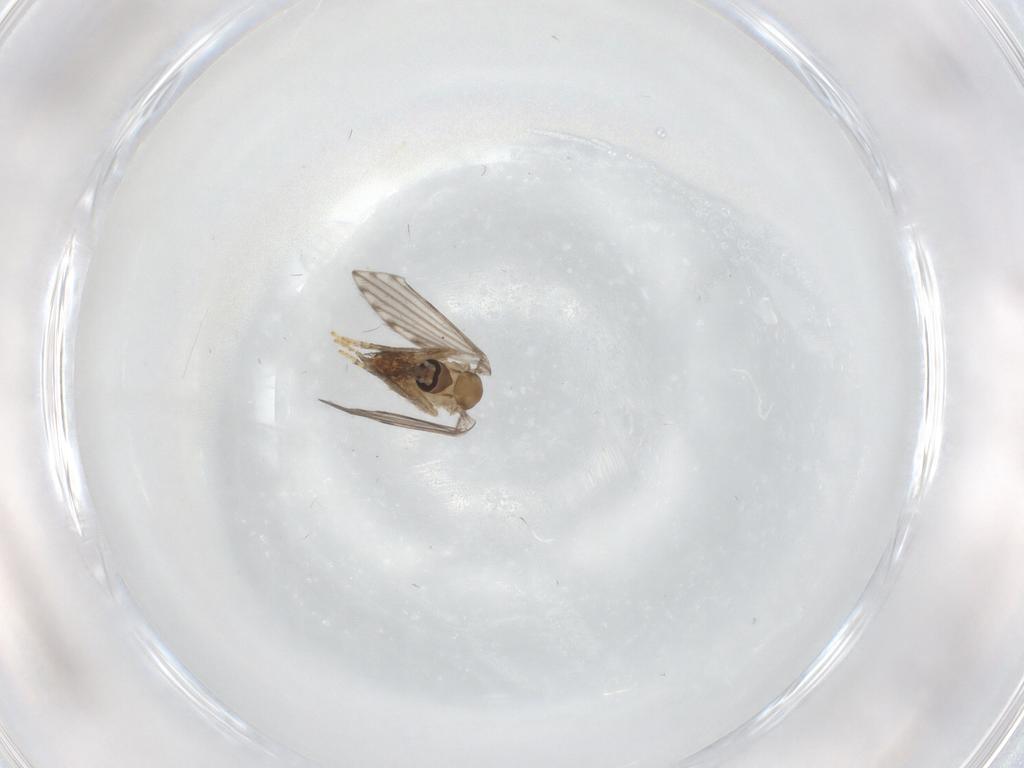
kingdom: Animalia
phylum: Arthropoda
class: Insecta
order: Diptera
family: Psychodidae
